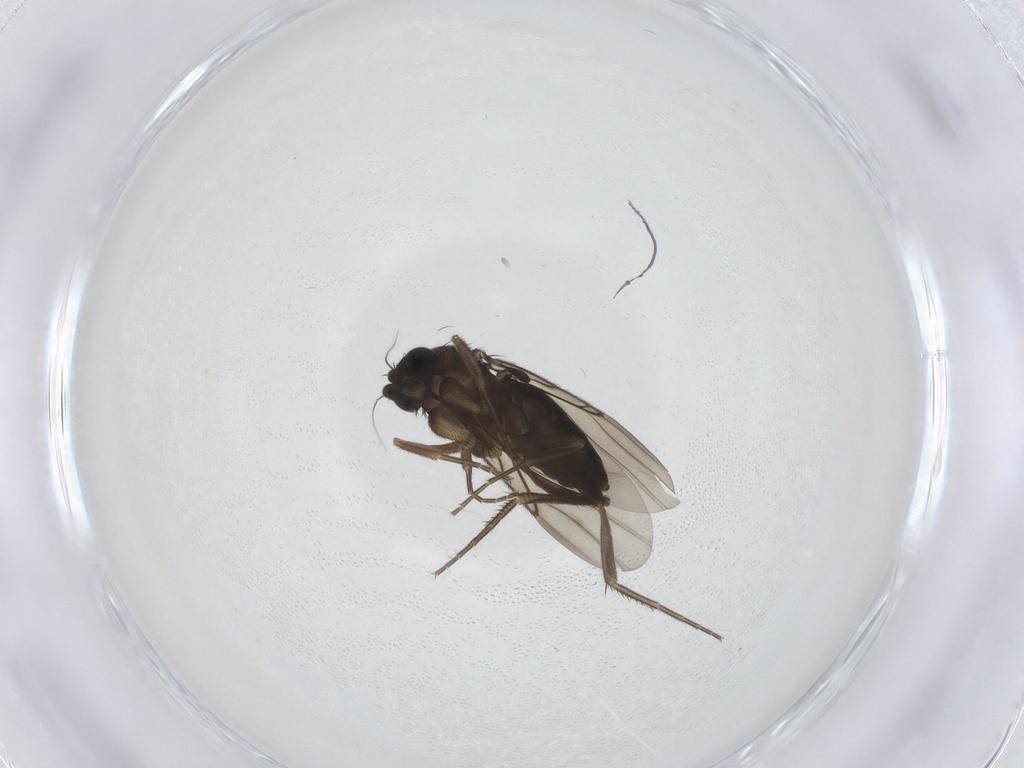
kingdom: Animalia
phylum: Arthropoda
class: Insecta
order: Diptera
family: Phoridae
